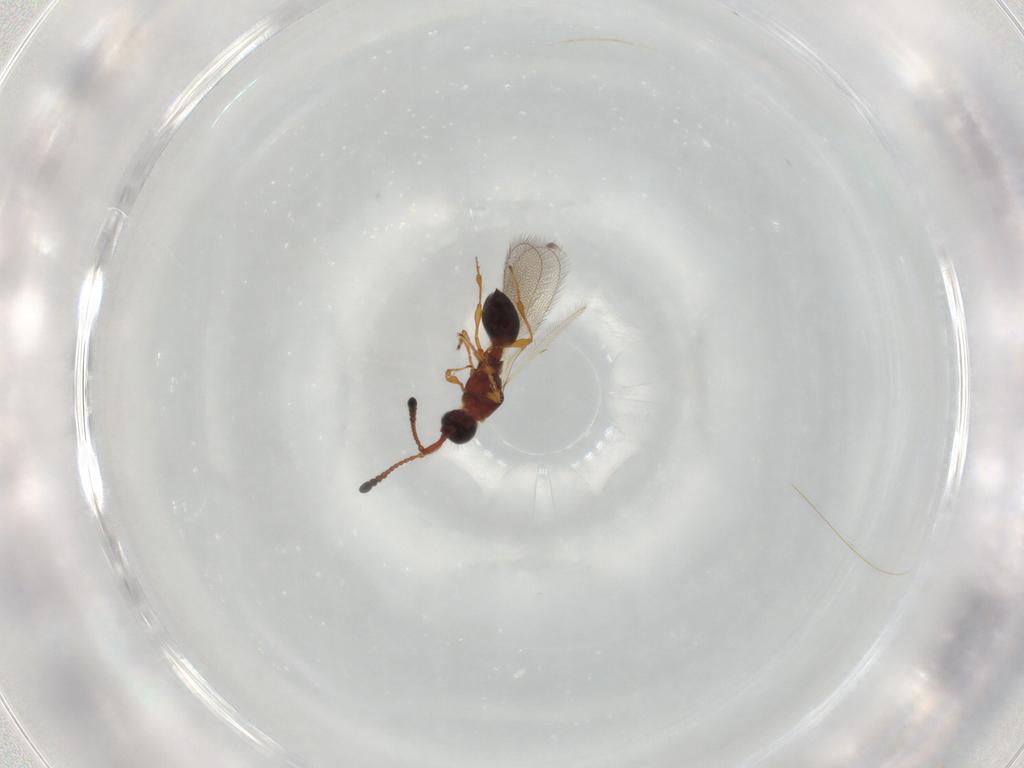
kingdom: Animalia
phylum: Arthropoda
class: Insecta
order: Hymenoptera
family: Diapriidae
